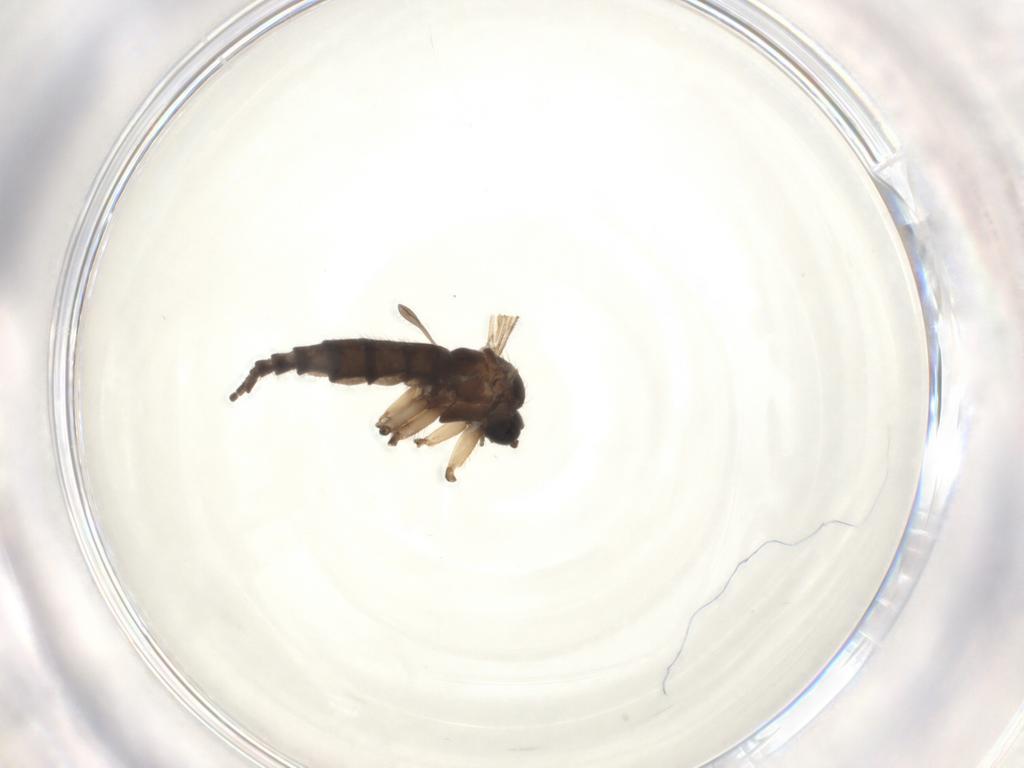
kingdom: Animalia
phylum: Arthropoda
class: Insecta
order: Diptera
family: Sciaridae
